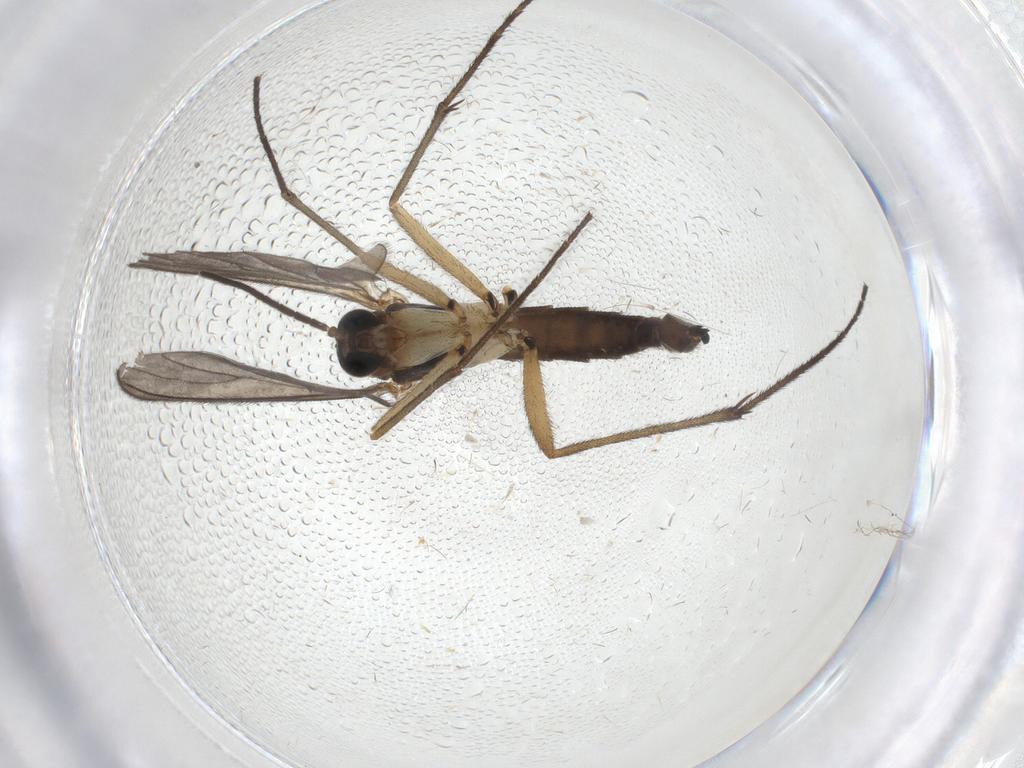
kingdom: Animalia
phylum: Arthropoda
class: Insecta
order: Diptera
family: Sciaridae
